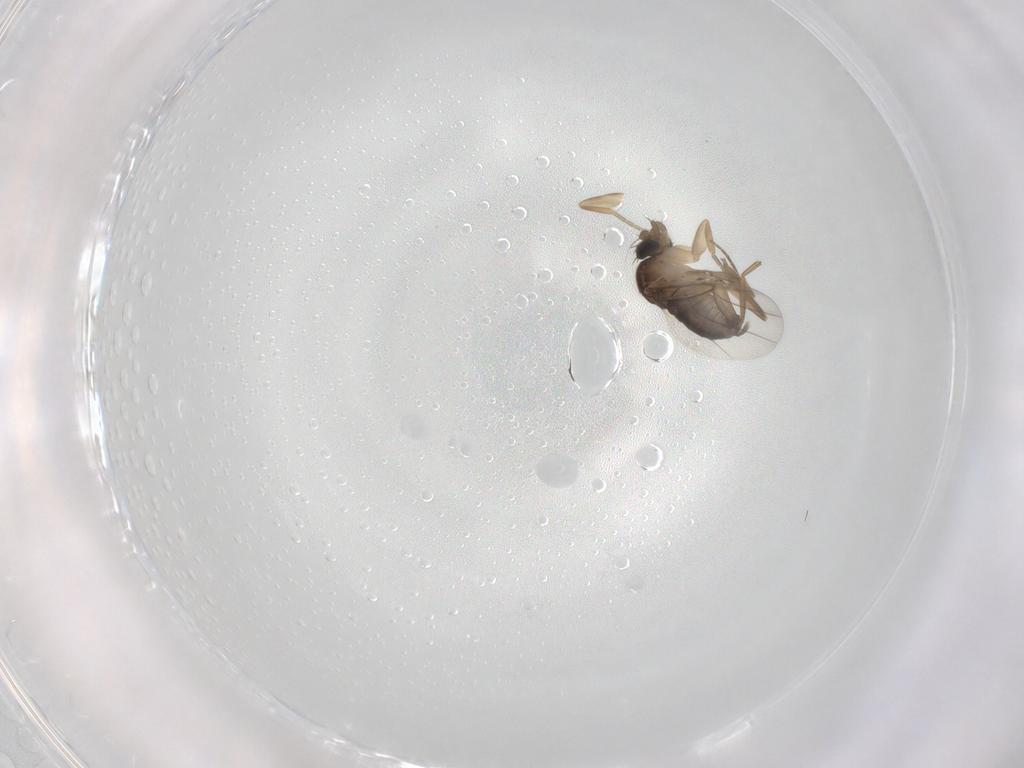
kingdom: Animalia
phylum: Arthropoda
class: Insecta
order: Diptera
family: Phoridae
